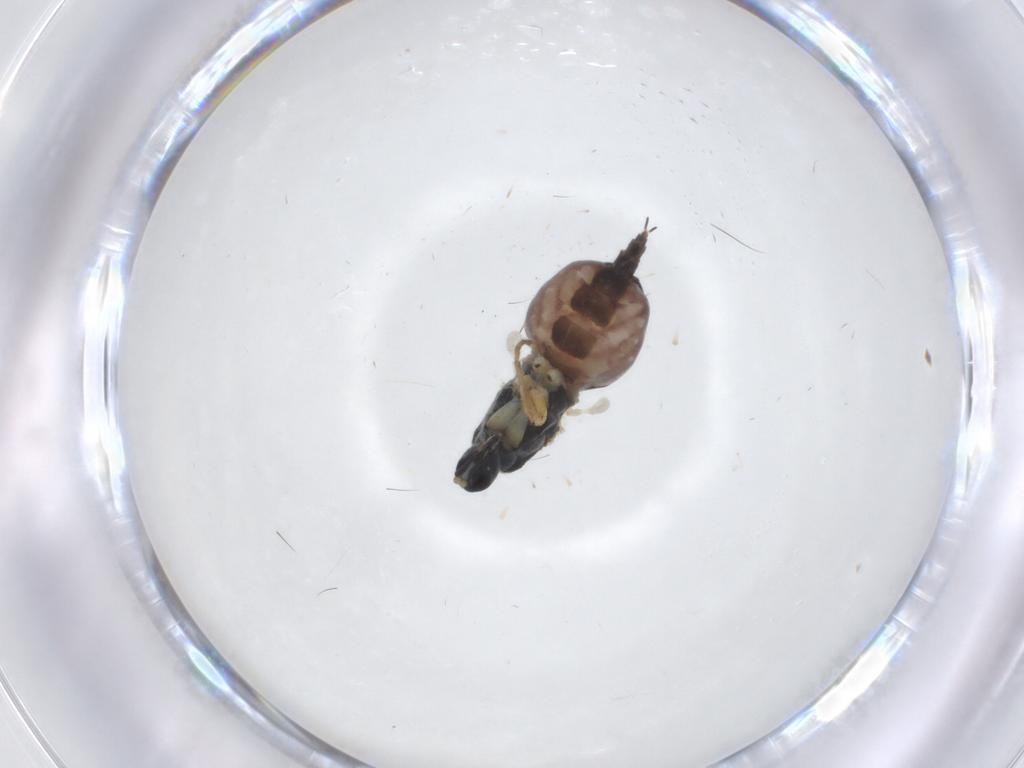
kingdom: Animalia
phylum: Arthropoda
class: Insecta
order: Diptera
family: Hybotidae
